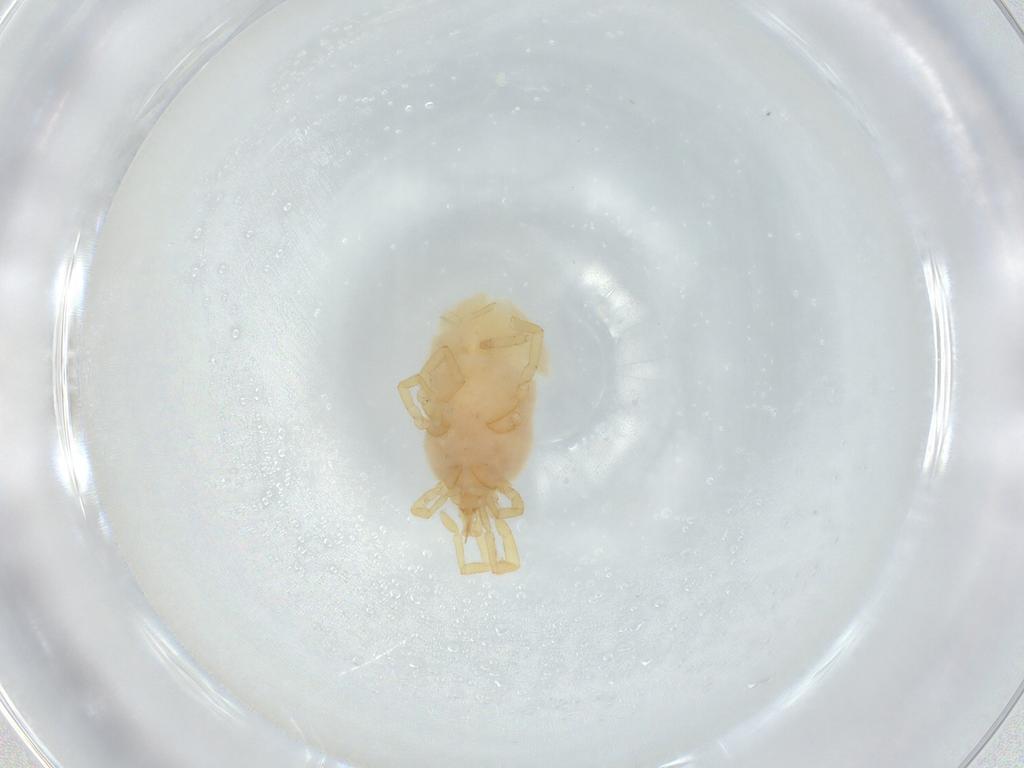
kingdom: Animalia
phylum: Arthropoda
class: Arachnida
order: Trombidiformes
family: Erythraeidae
